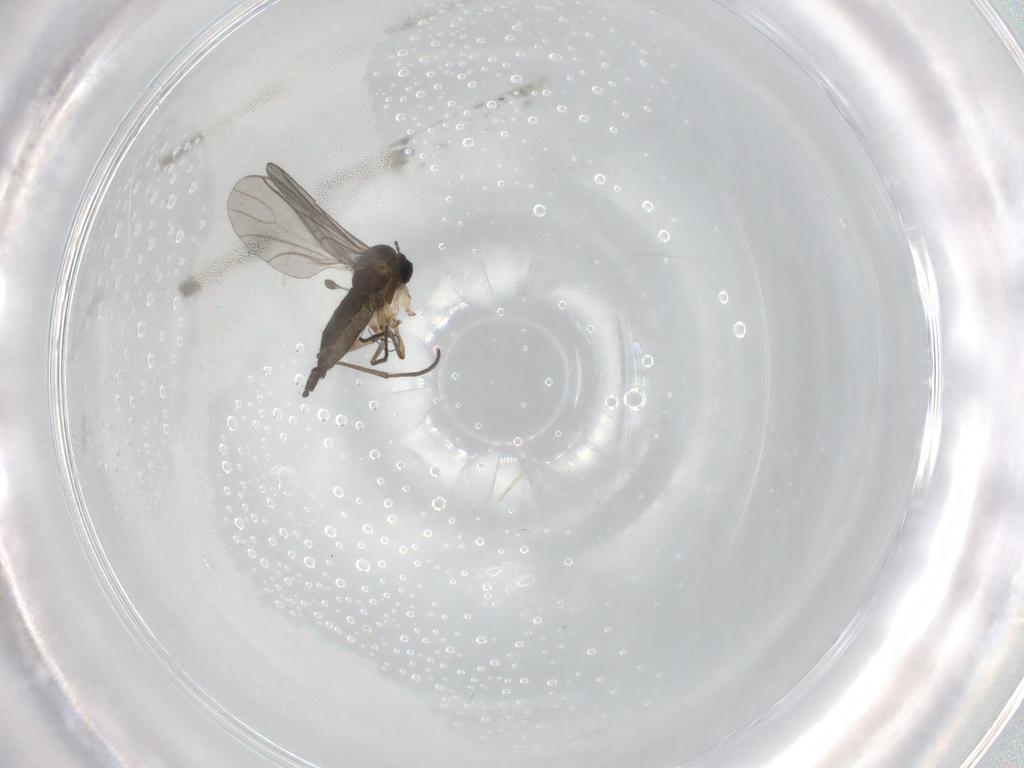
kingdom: Animalia
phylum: Arthropoda
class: Insecta
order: Diptera
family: Sciaridae
